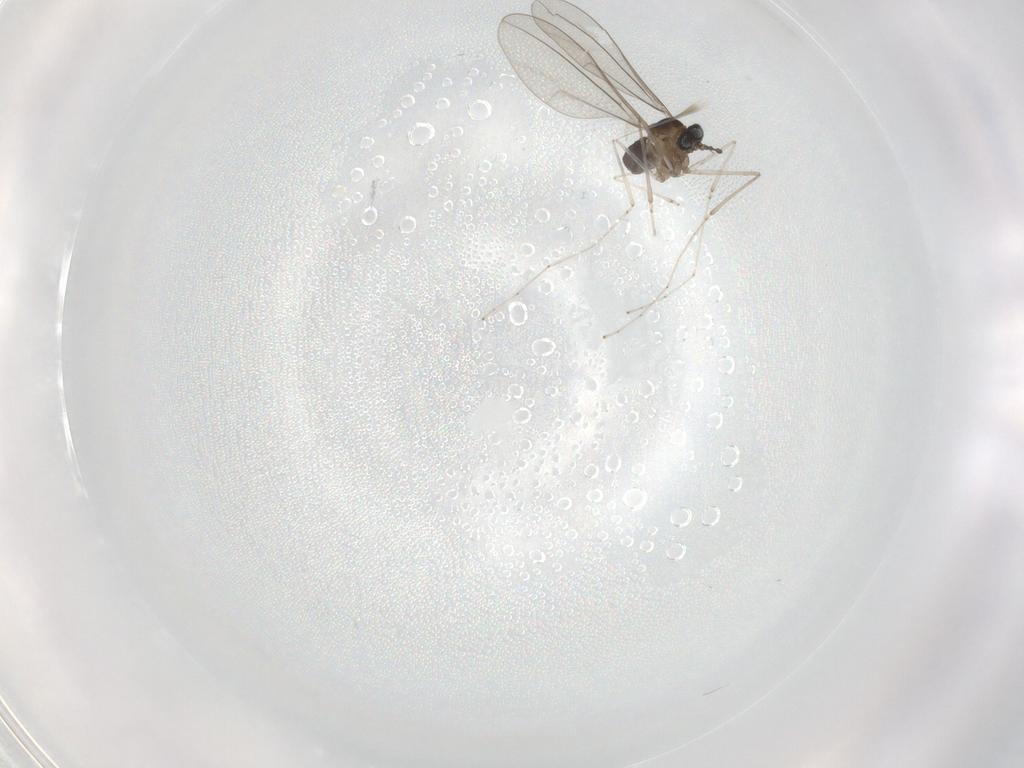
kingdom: Animalia
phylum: Arthropoda
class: Insecta
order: Diptera
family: Cecidomyiidae
